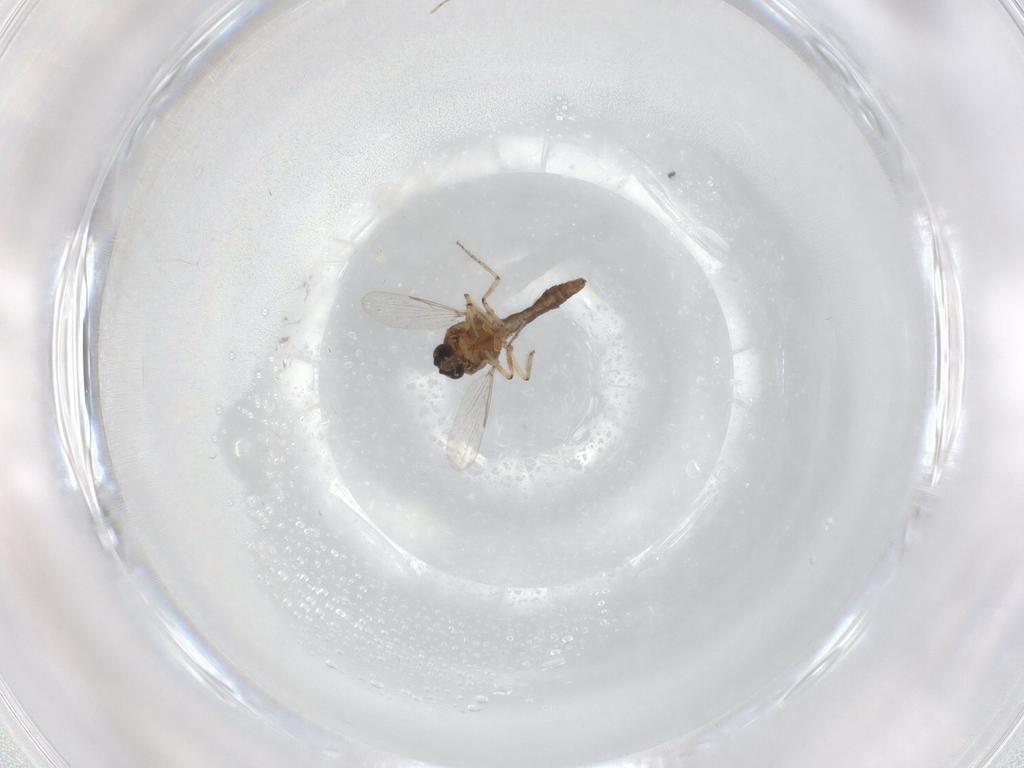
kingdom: Animalia
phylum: Arthropoda
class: Insecta
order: Diptera
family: Ceratopogonidae
